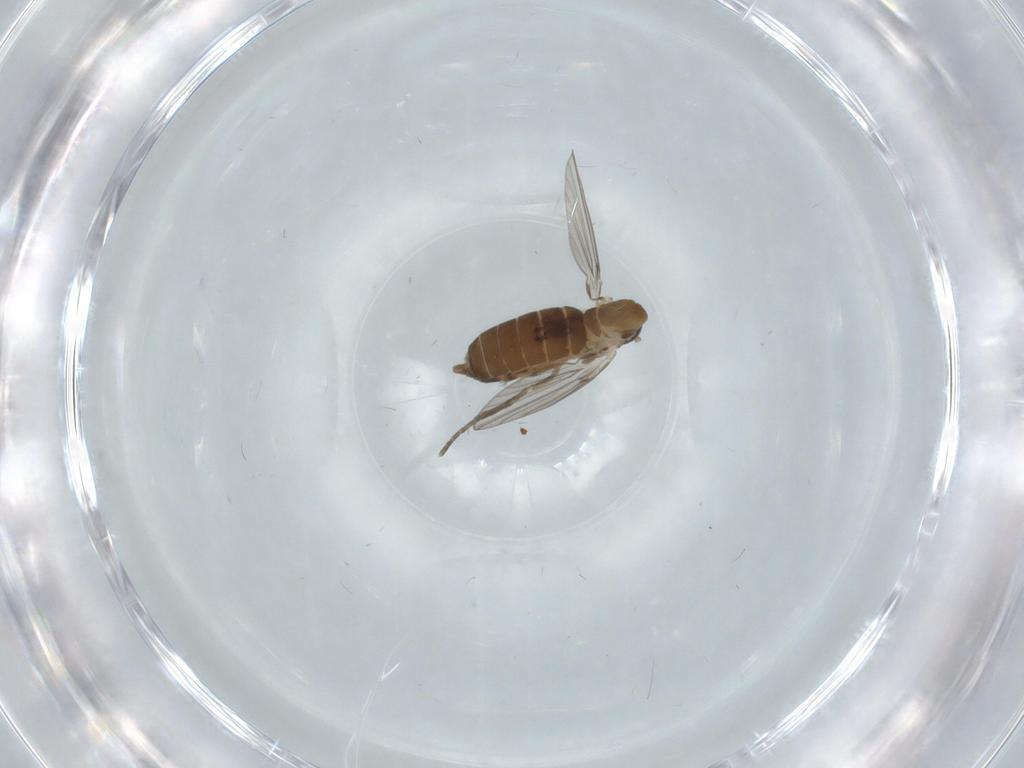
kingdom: Animalia
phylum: Arthropoda
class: Insecta
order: Diptera
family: Psychodidae
